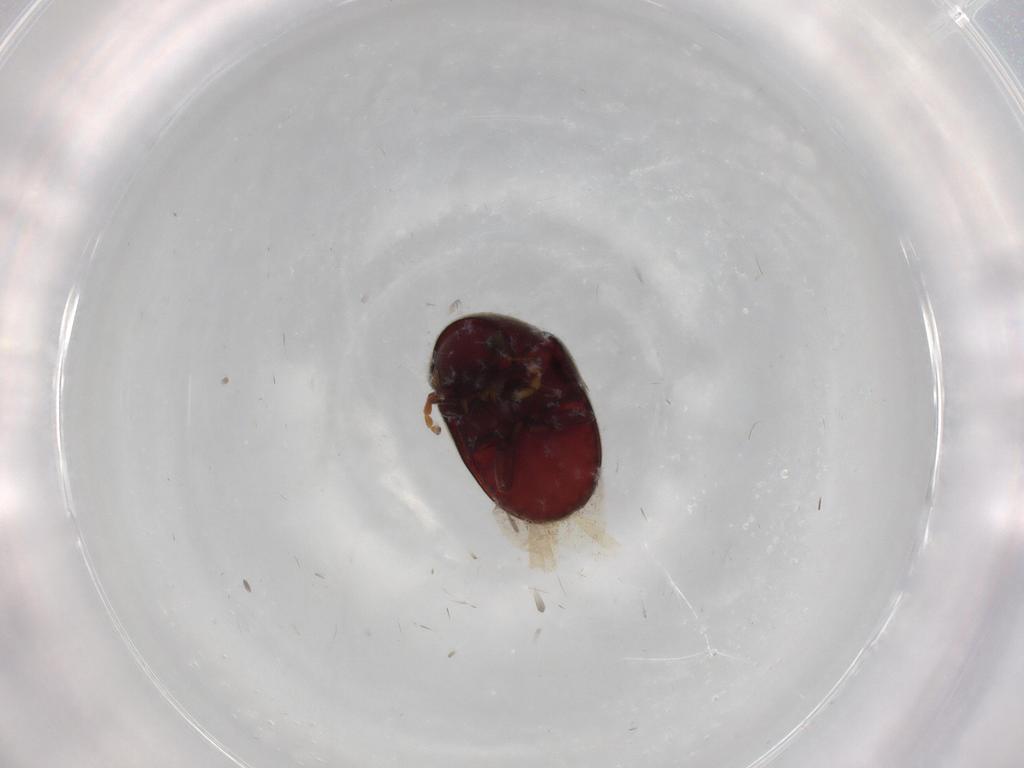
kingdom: Animalia
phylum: Arthropoda
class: Insecta
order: Coleoptera
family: Ptinidae
